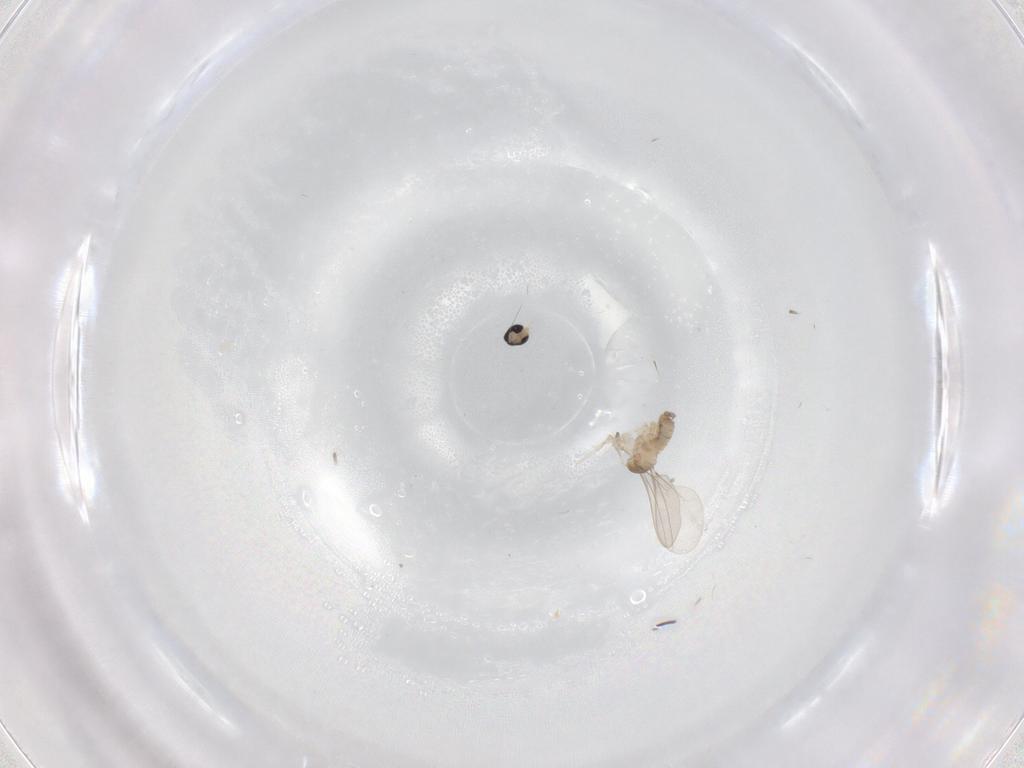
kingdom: Animalia
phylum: Arthropoda
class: Insecta
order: Diptera
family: Cecidomyiidae
